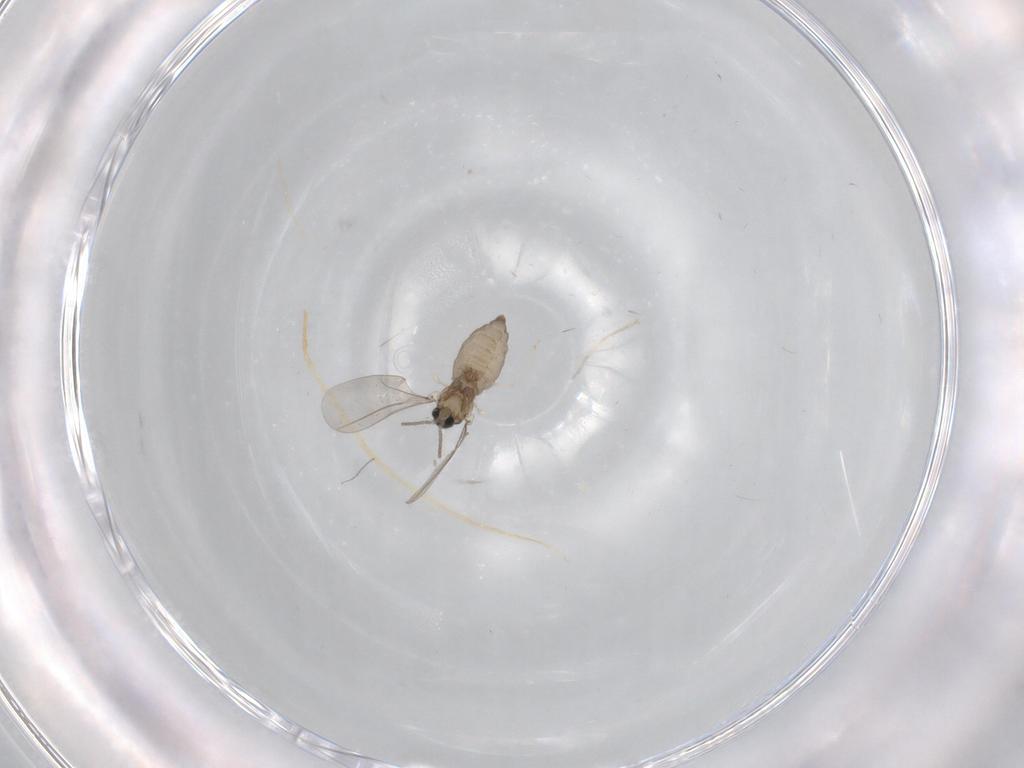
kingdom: Animalia
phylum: Arthropoda
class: Insecta
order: Diptera
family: Cecidomyiidae
